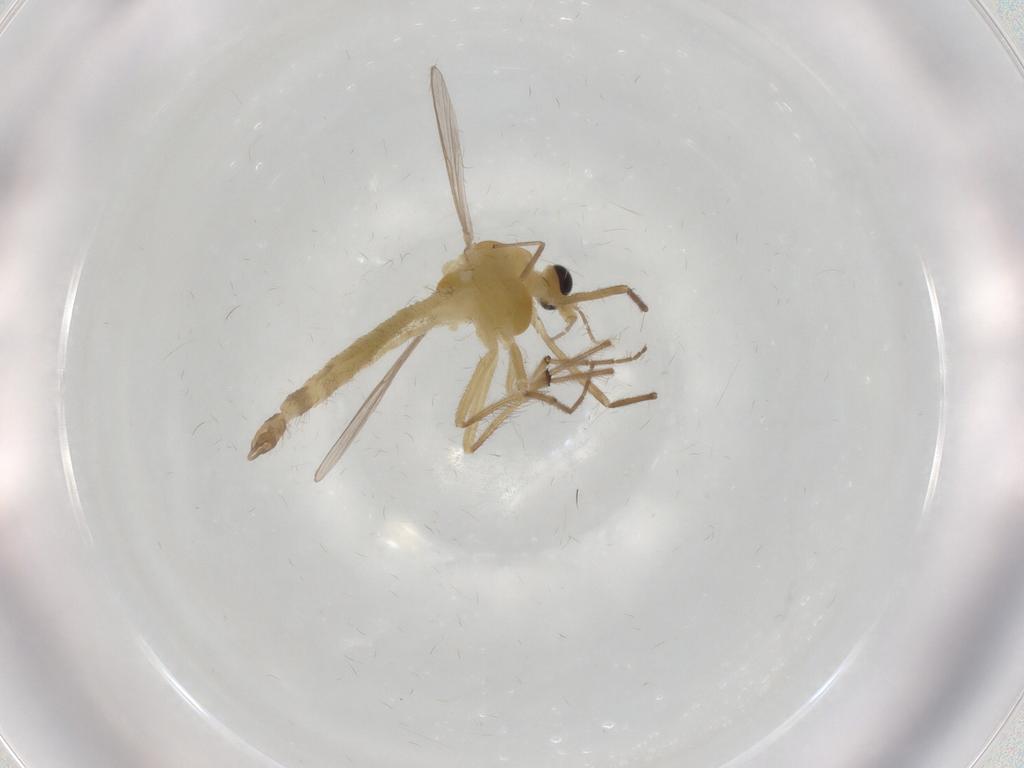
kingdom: Animalia
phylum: Arthropoda
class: Insecta
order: Diptera
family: Chironomidae
